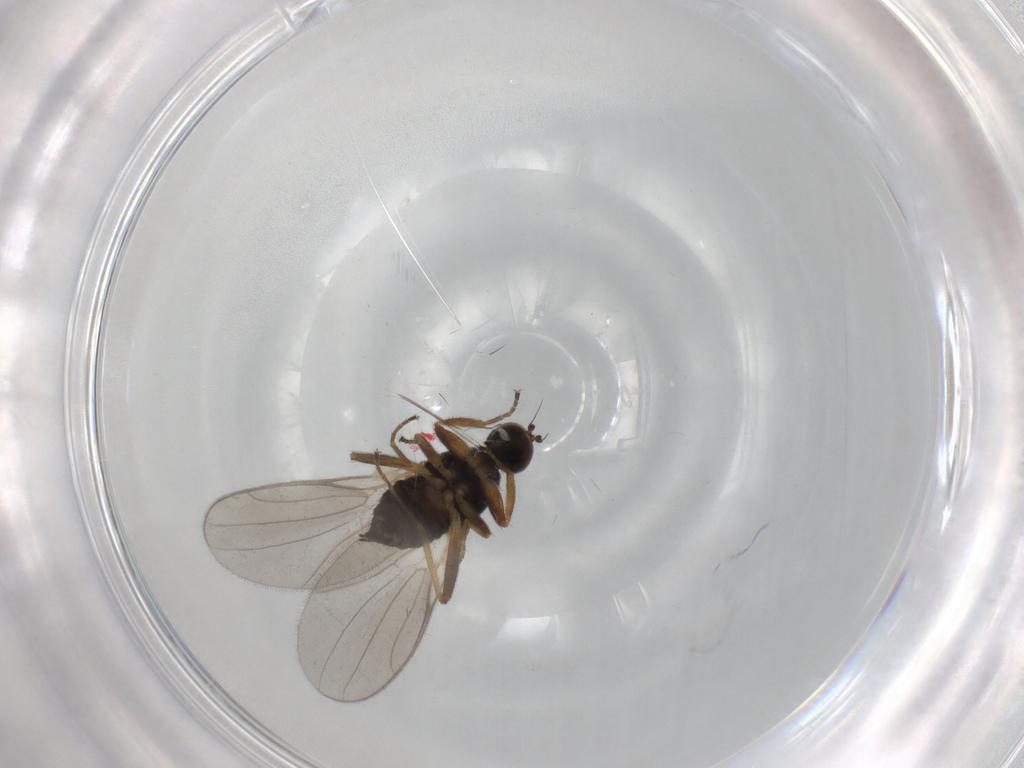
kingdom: Animalia
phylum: Arthropoda
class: Insecta
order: Diptera
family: Hybotidae
